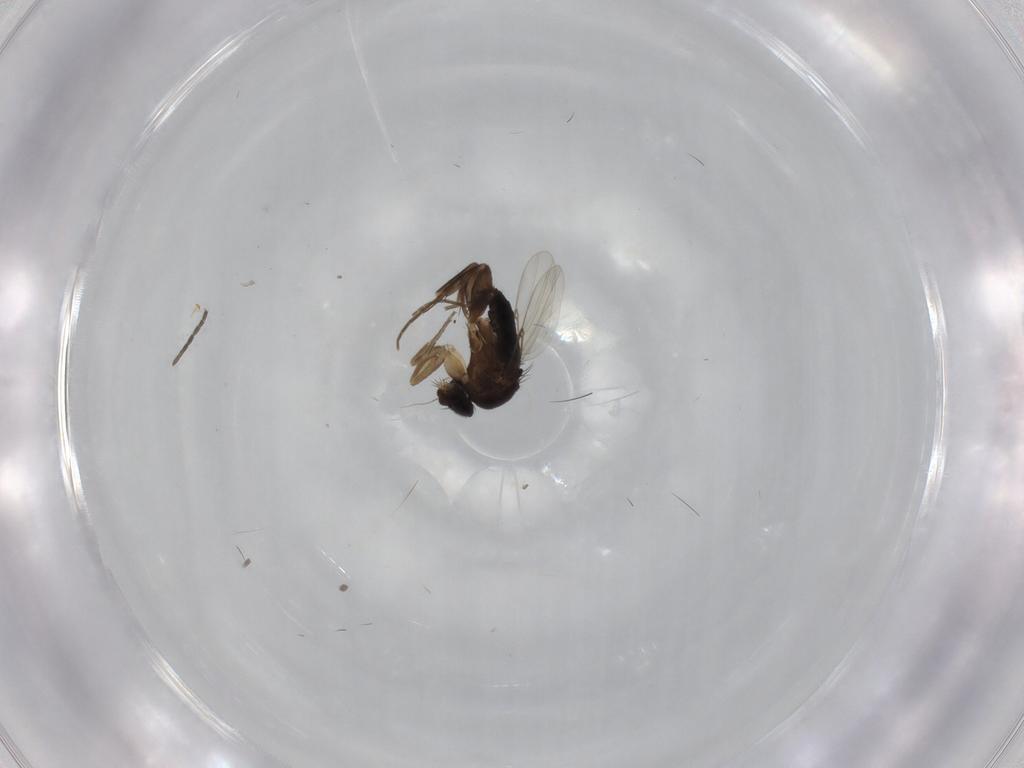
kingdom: Animalia
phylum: Arthropoda
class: Insecta
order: Diptera
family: Phoridae
